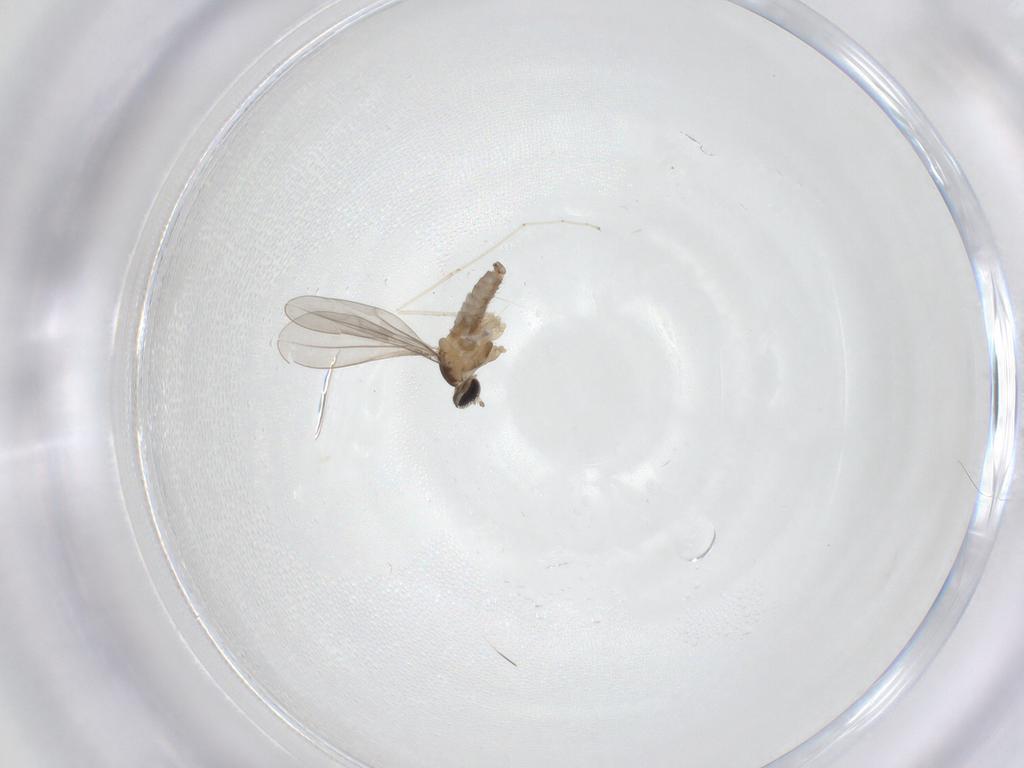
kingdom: Animalia
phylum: Arthropoda
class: Insecta
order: Diptera
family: Cecidomyiidae
